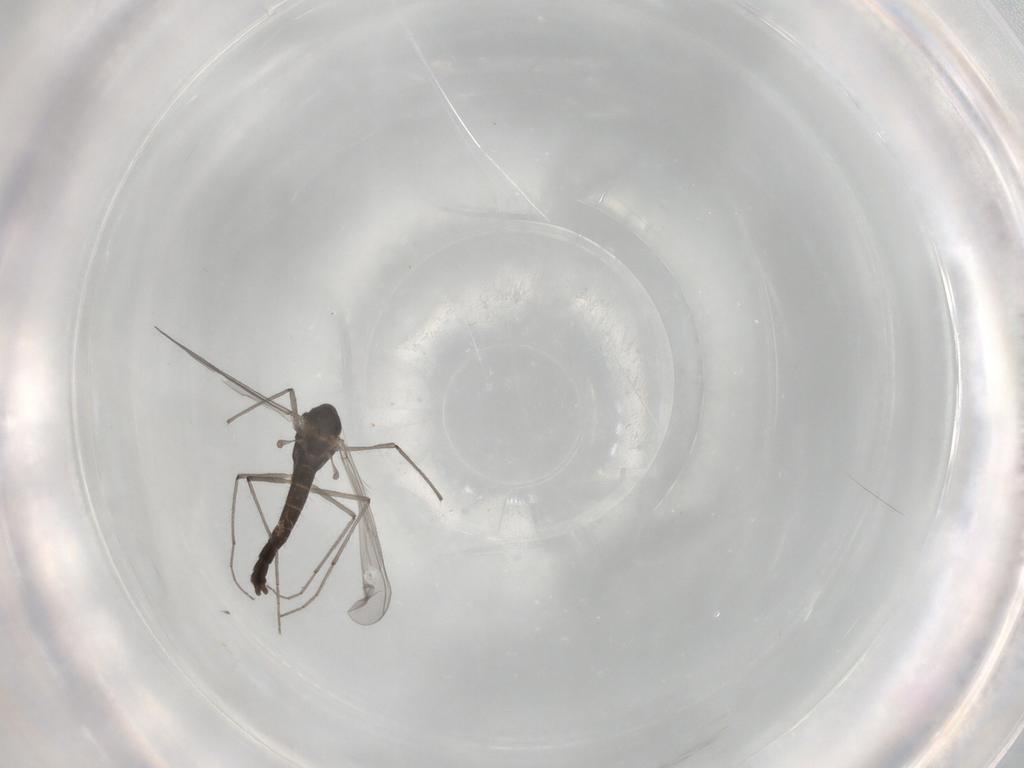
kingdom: Animalia
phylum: Arthropoda
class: Insecta
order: Diptera
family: Chironomidae
